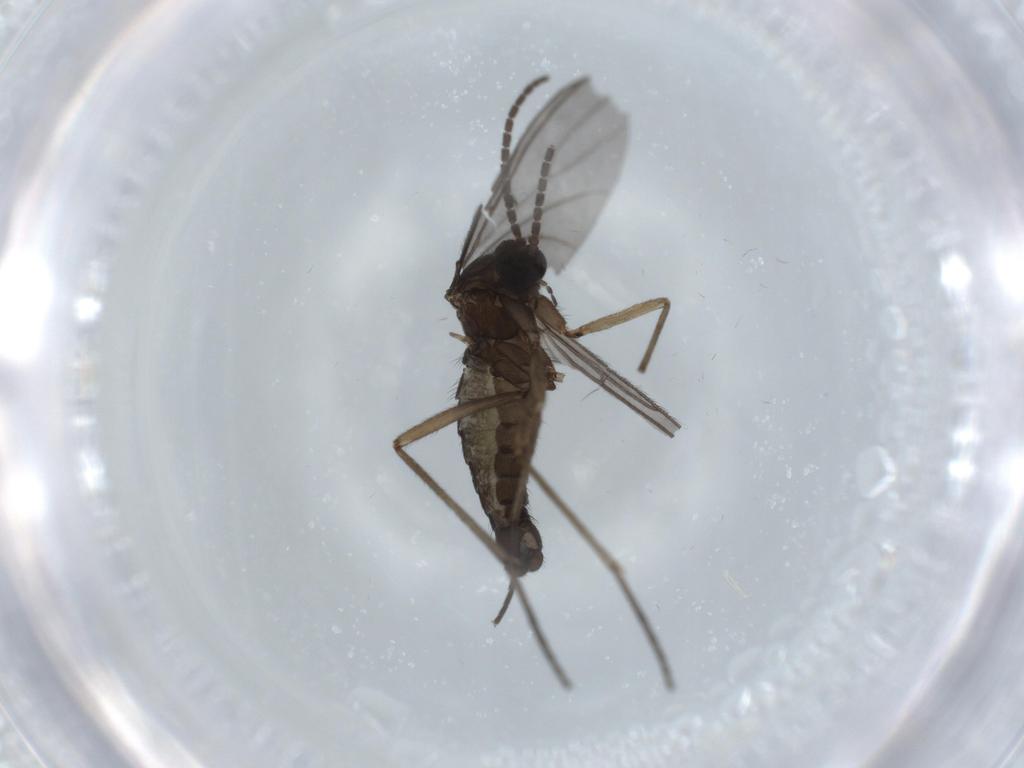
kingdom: Animalia
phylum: Arthropoda
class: Insecta
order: Diptera
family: Sciaridae
